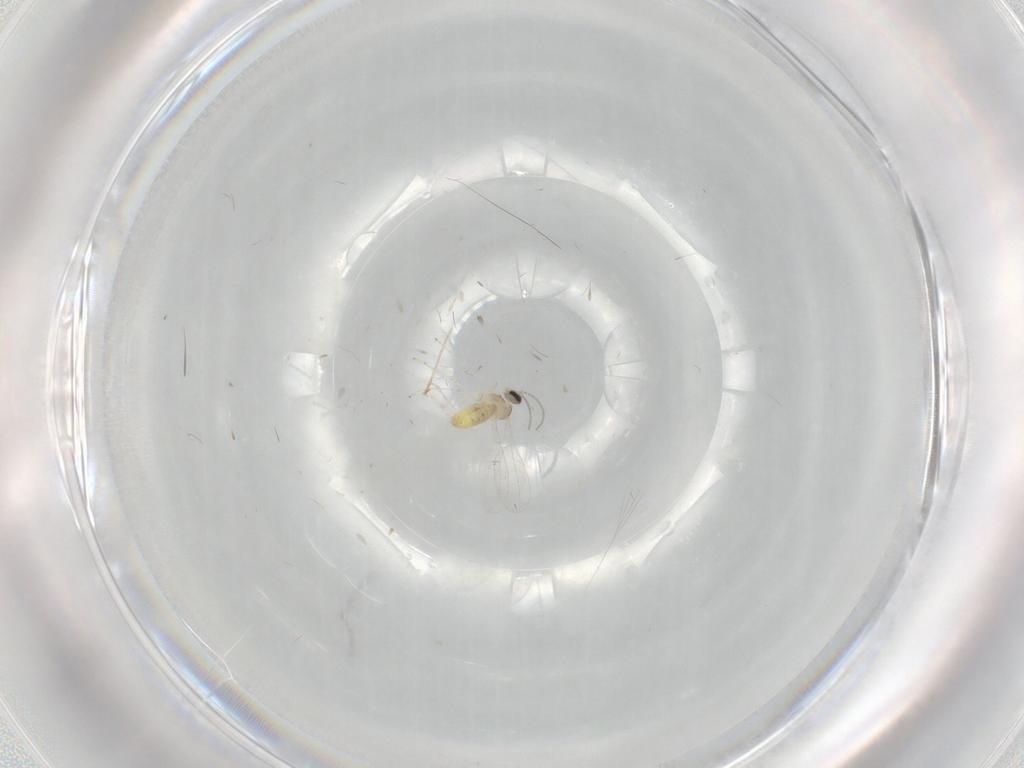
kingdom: Animalia
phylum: Arthropoda
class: Insecta
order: Diptera
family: Cecidomyiidae
